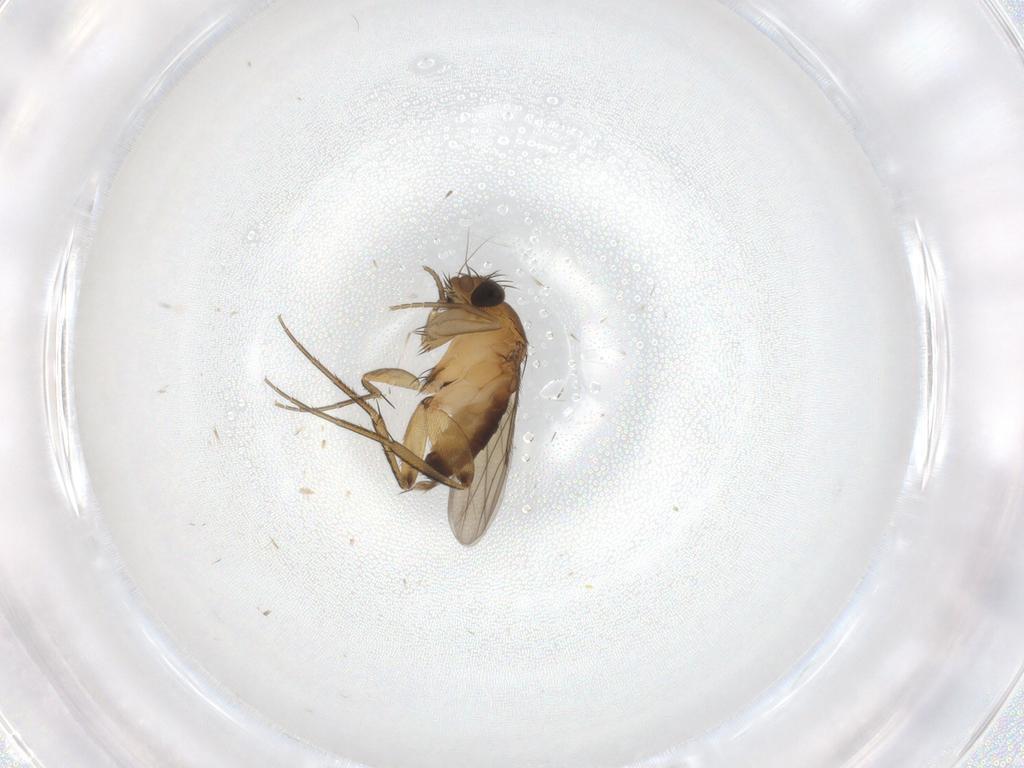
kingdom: Animalia
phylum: Arthropoda
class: Insecta
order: Diptera
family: Phoridae
